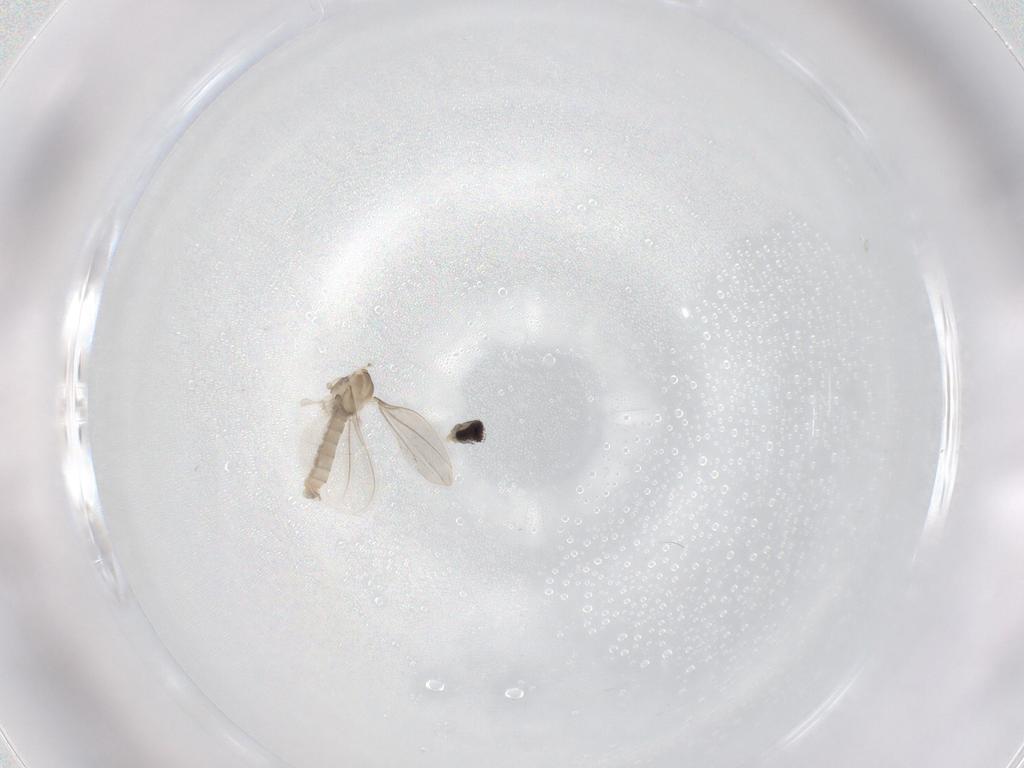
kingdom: Animalia
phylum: Arthropoda
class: Insecta
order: Diptera
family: Cecidomyiidae
